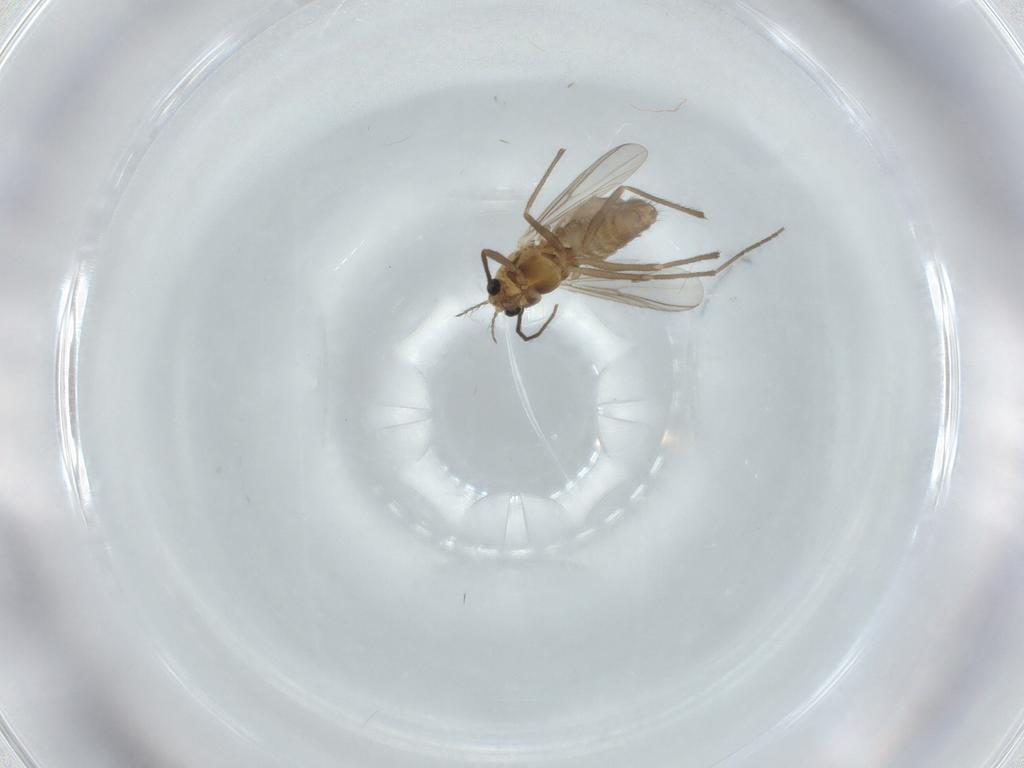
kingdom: Animalia
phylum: Arthropoda
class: Insecta
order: Diptera
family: Chironomidae
